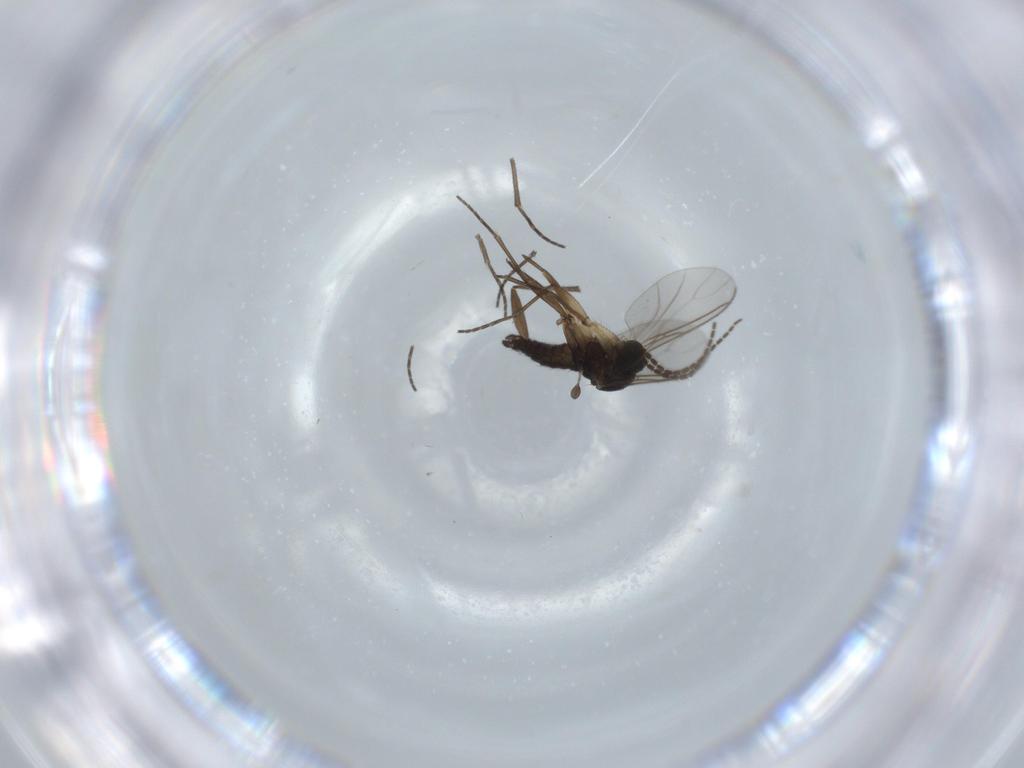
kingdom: Animalia
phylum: Arthropoda
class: Insecta
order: Diptera
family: Sciaridae
